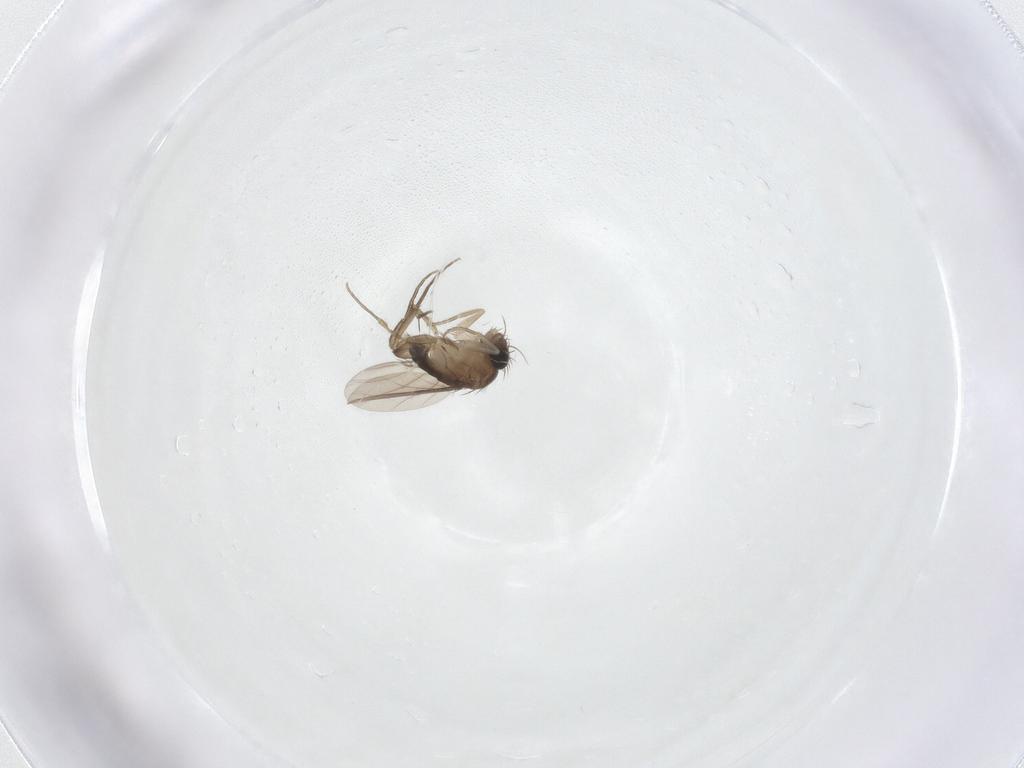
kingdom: Animalia
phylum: Arthropoda
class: Insecta
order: Diptera
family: Phoridae
